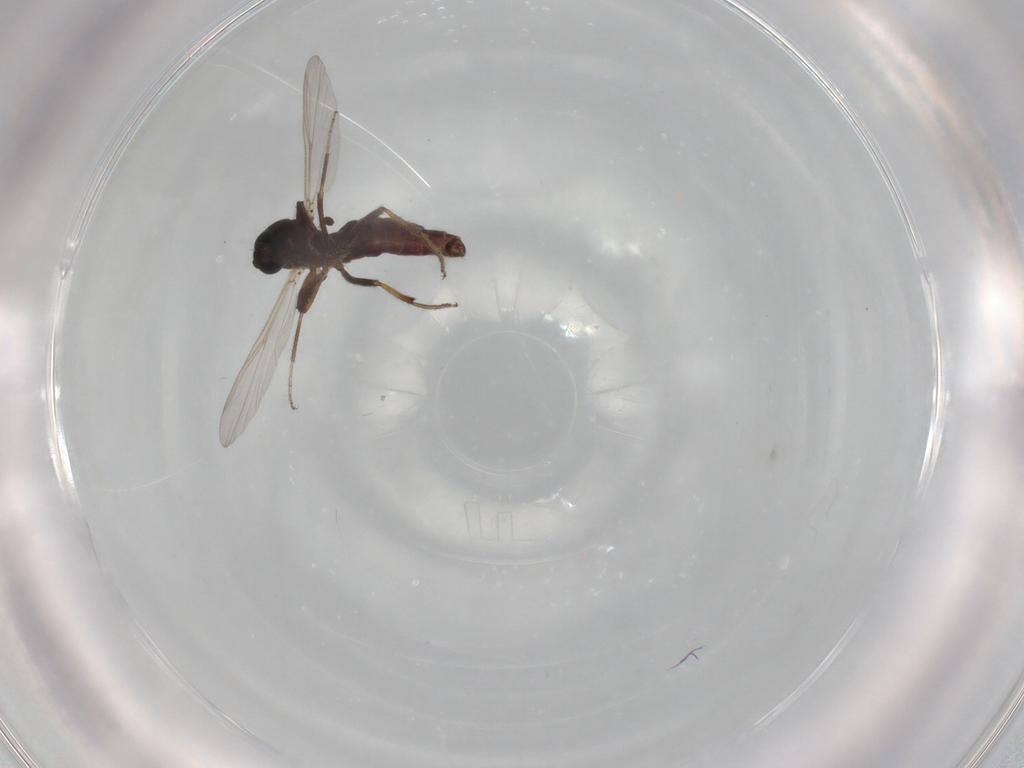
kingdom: Animalia
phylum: Arthropoda
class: Insecta
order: Diptera
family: Ceratopogonidae
